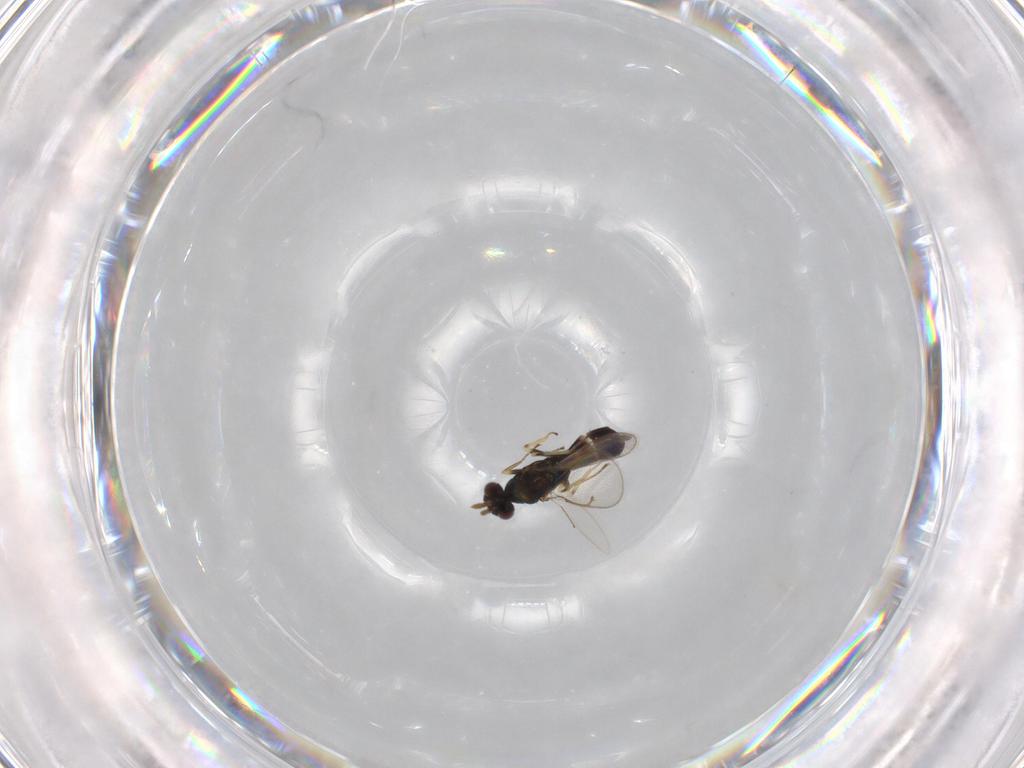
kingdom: Animalia
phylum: Arthropoda
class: Insecta
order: Hymenoptera
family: Eulophidae
